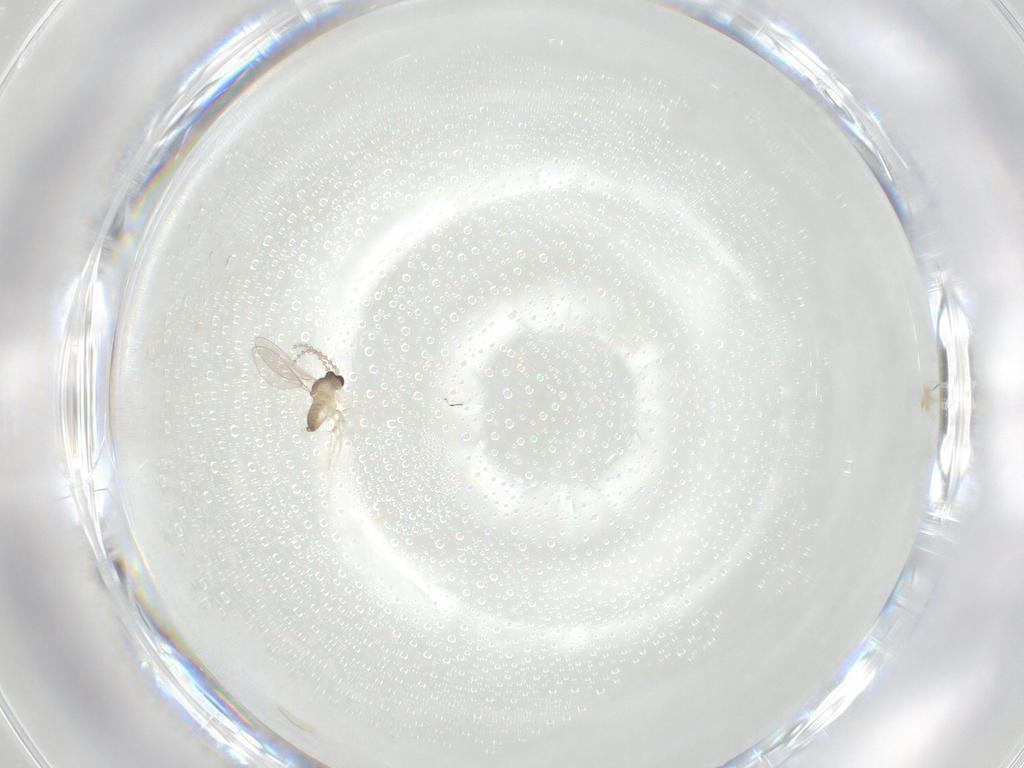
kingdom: Animalia
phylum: Arthropoda
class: Insecta
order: Diptera
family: Cecidomyiidae
